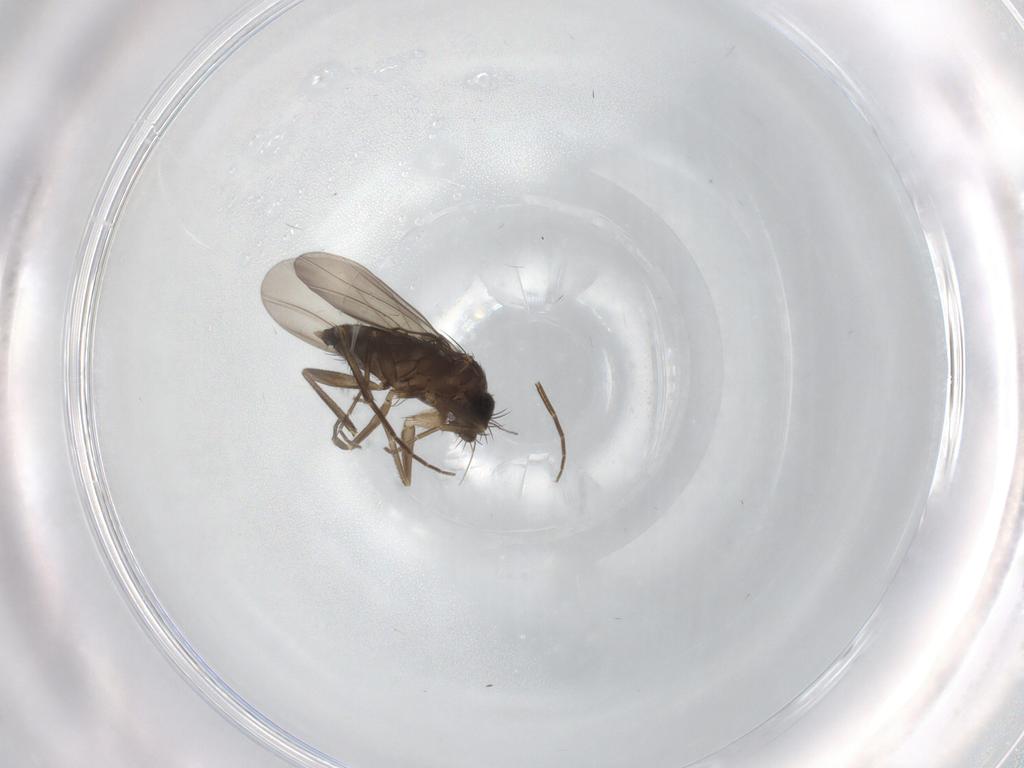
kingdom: Animalia
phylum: Arthropoda
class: Insecta
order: Diptera
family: Phoridae
